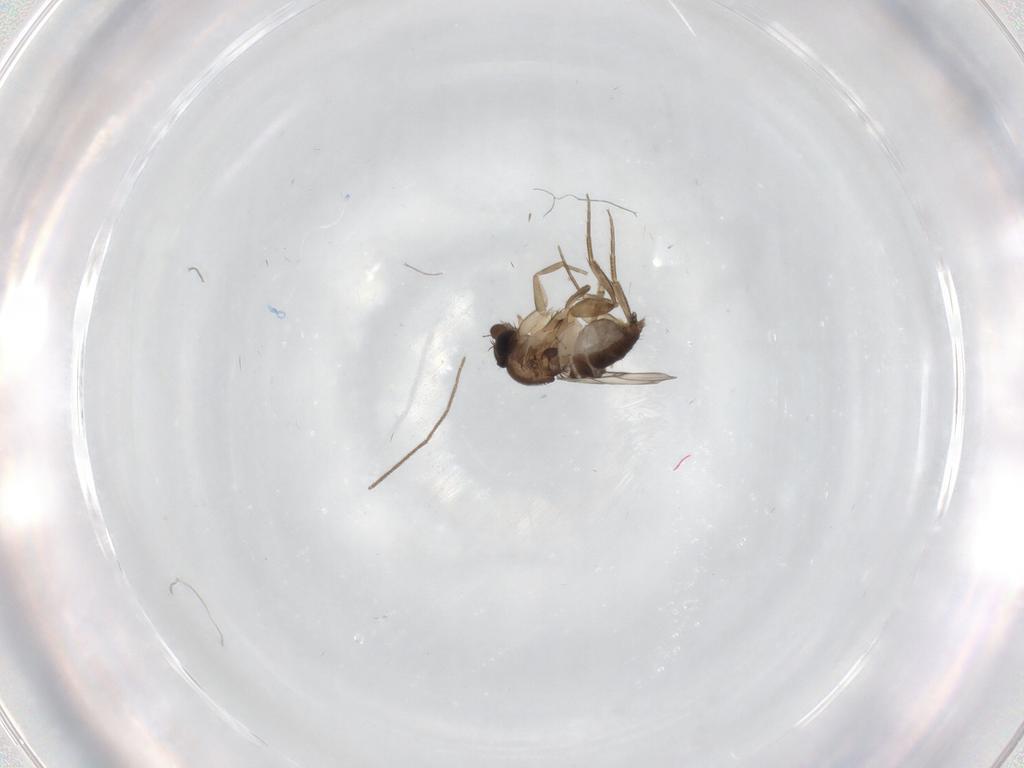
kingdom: Animalia
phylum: Arthropoda
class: Insecta
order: Diptera
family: Phoridae
